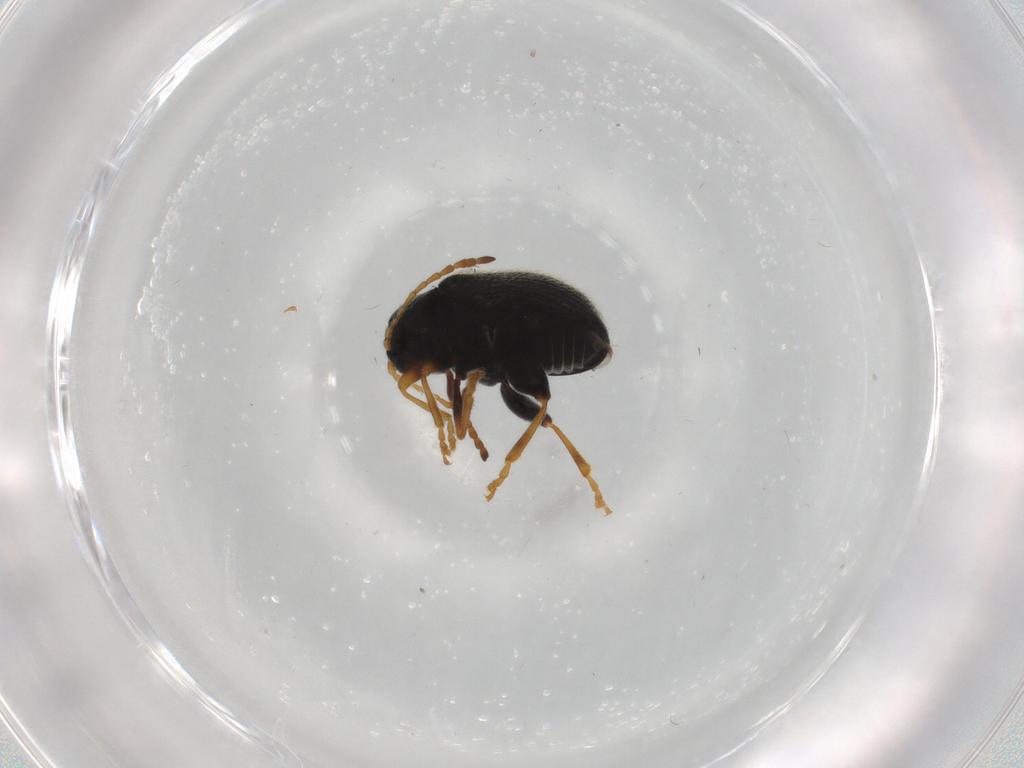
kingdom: Animalia
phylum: Arthropoda
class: Insecta
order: Coleoptera
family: Chrysomelidae
